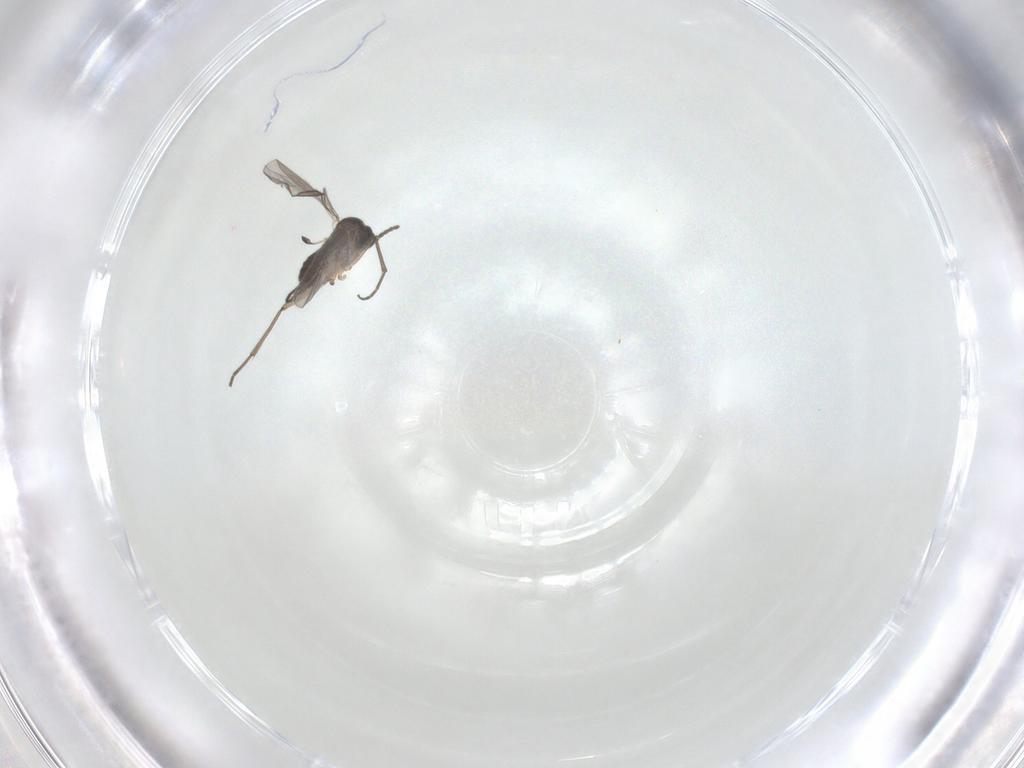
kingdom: Animalia
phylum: Arthropoda
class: Insecta
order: Diptera
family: Sciaridae
